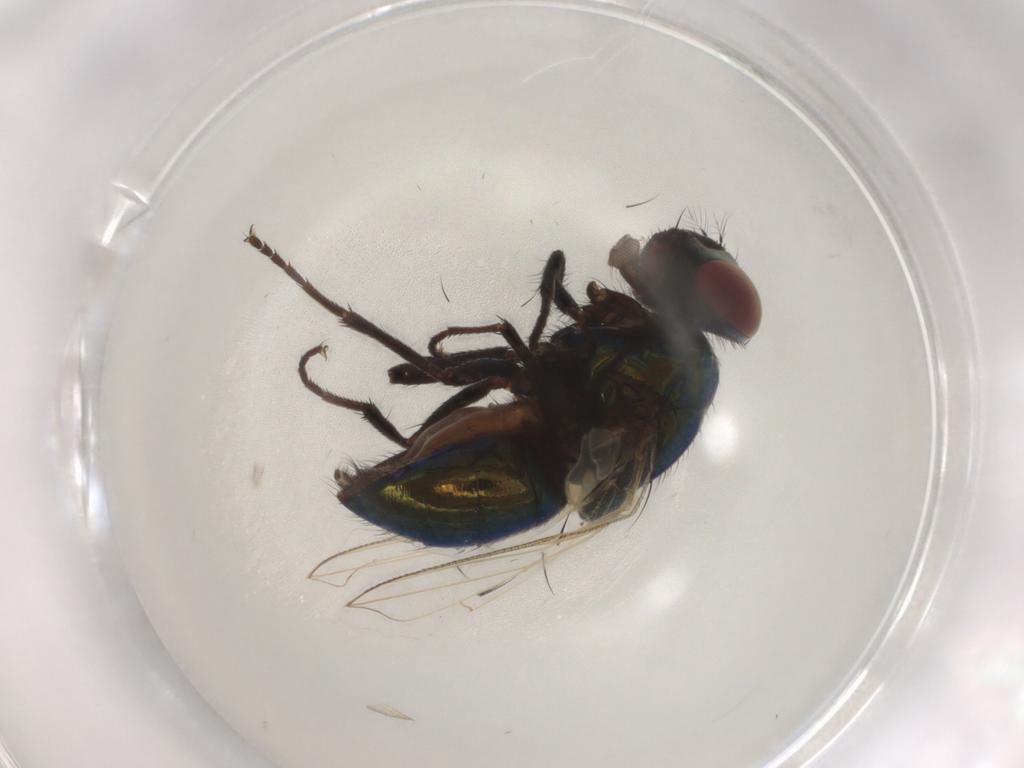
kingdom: Animalia
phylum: Arthropoda
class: Insecta
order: Diptera
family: Muscidae
